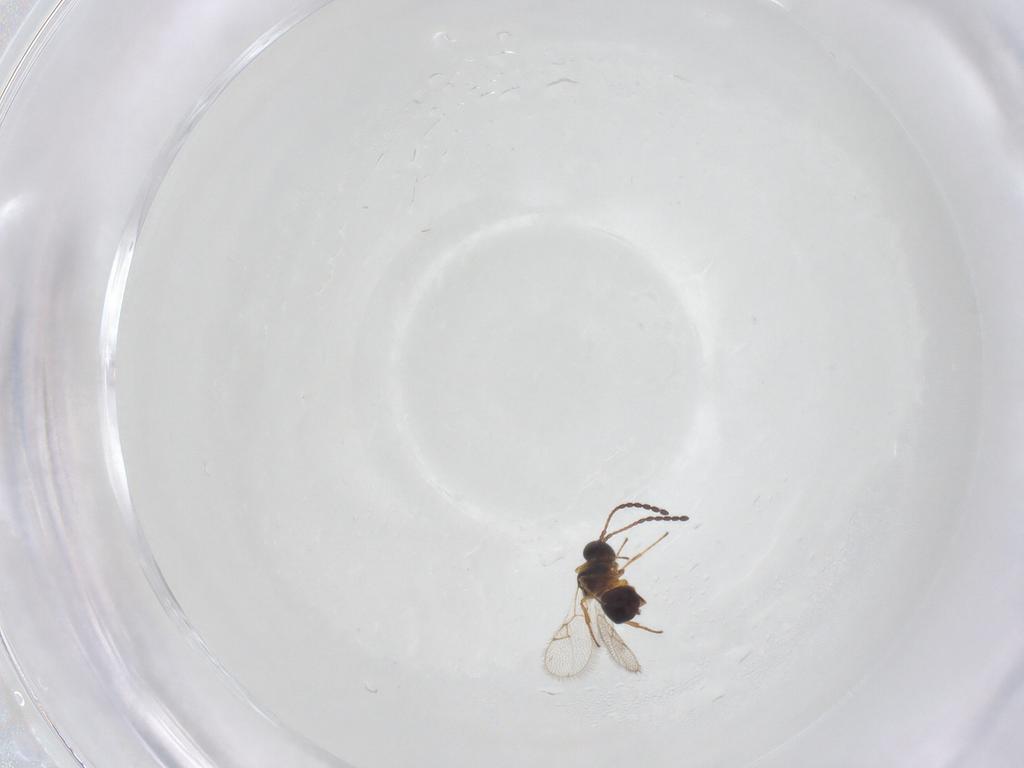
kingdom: Animalia
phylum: Arthropoda
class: Insecta
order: Hymenoptera
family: Figitidae
